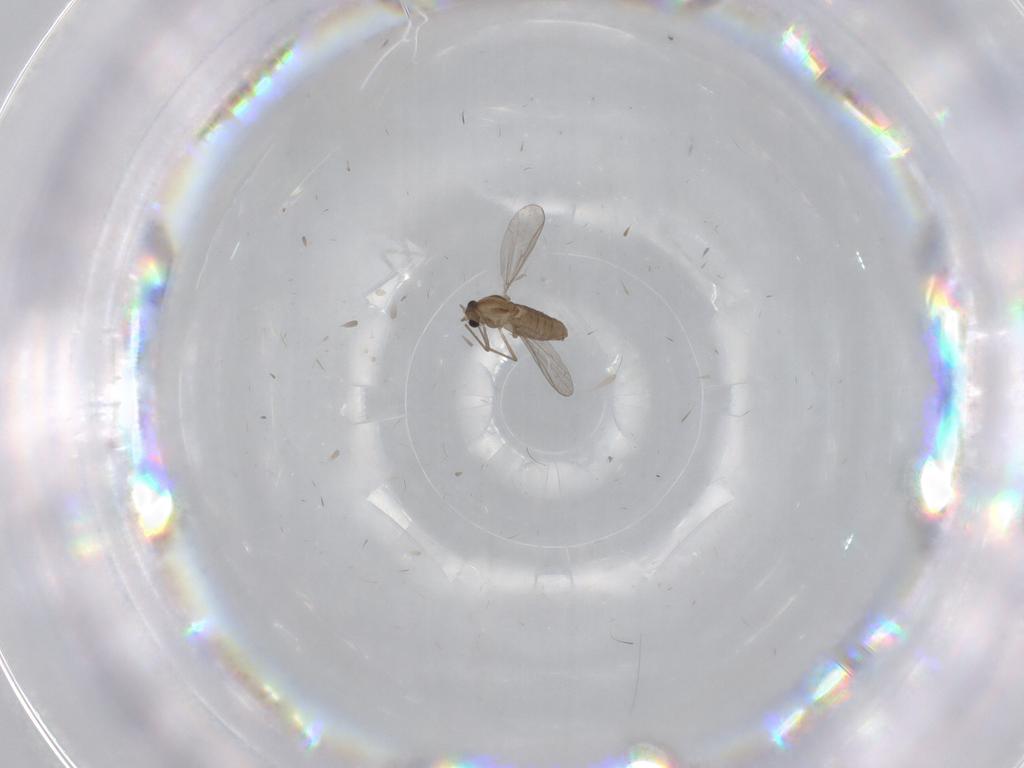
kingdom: Animalia
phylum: Arthropoda
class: Insecta
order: Diptera
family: Chironomidae
